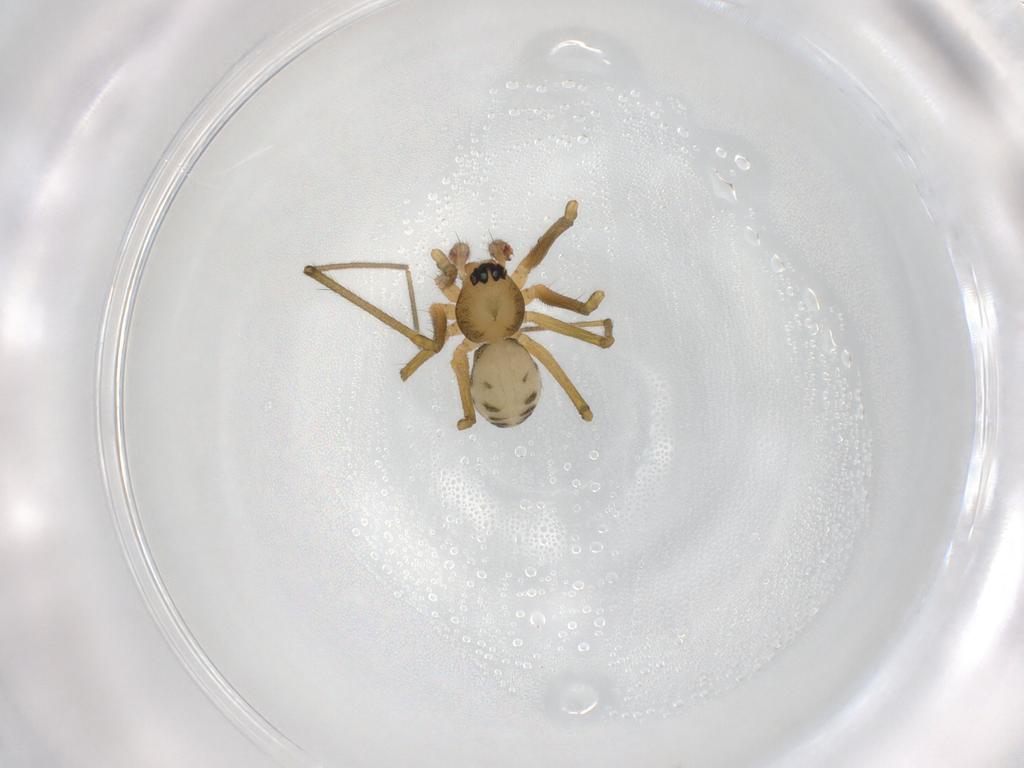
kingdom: Animalia
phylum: Arthropoda
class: Arachnida
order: Araneae
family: Linyphiidae
